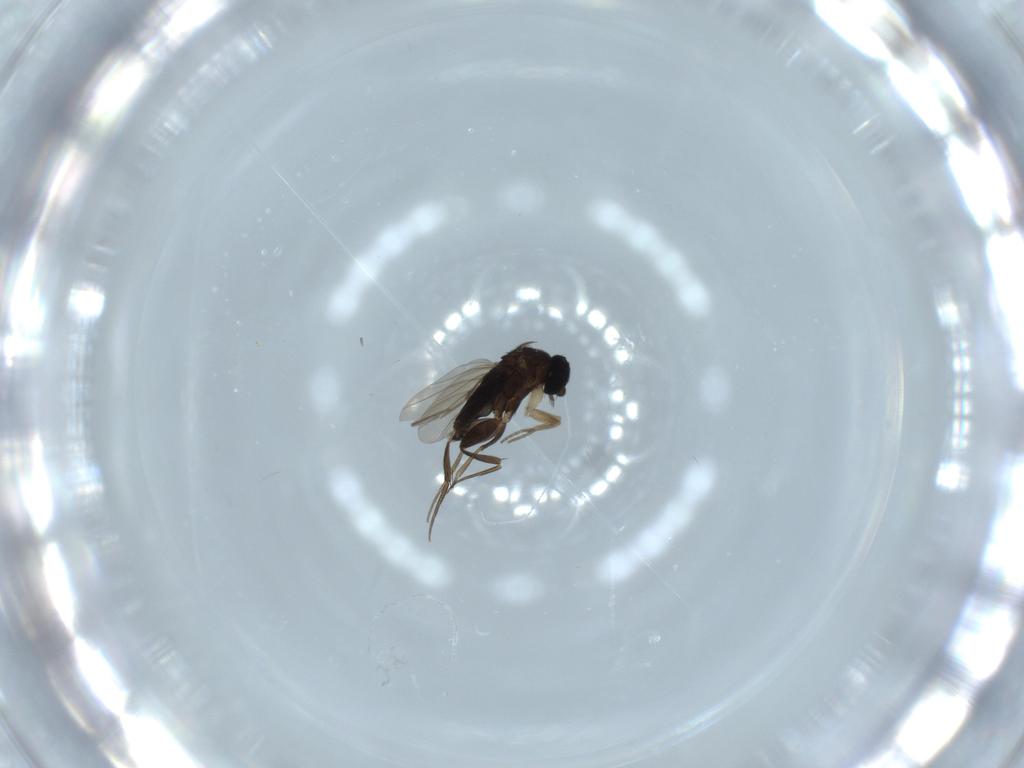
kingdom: Animalia
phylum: Arthropoda
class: Insecta
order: Diptera
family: Phoridae
